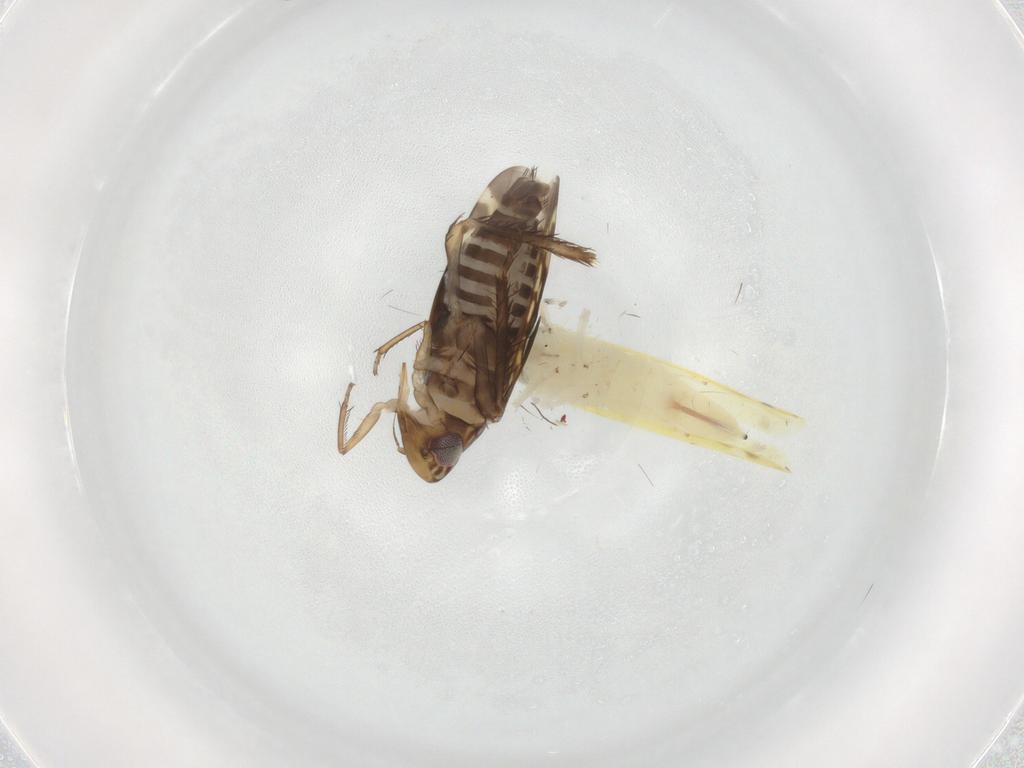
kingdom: Animalia
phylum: Arthropoda
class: Insecta
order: Hemiptera
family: Cicadellidae
